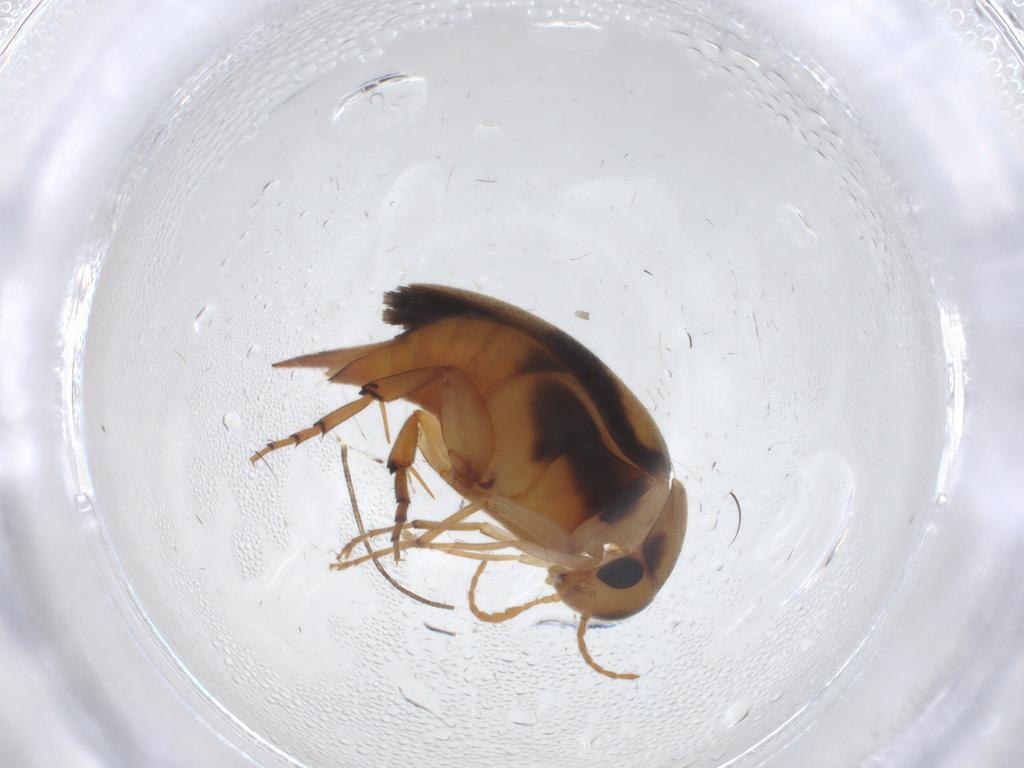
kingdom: Animalia
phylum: Arthropoda
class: Insecta
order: Coleoptera
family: Mordellidae
